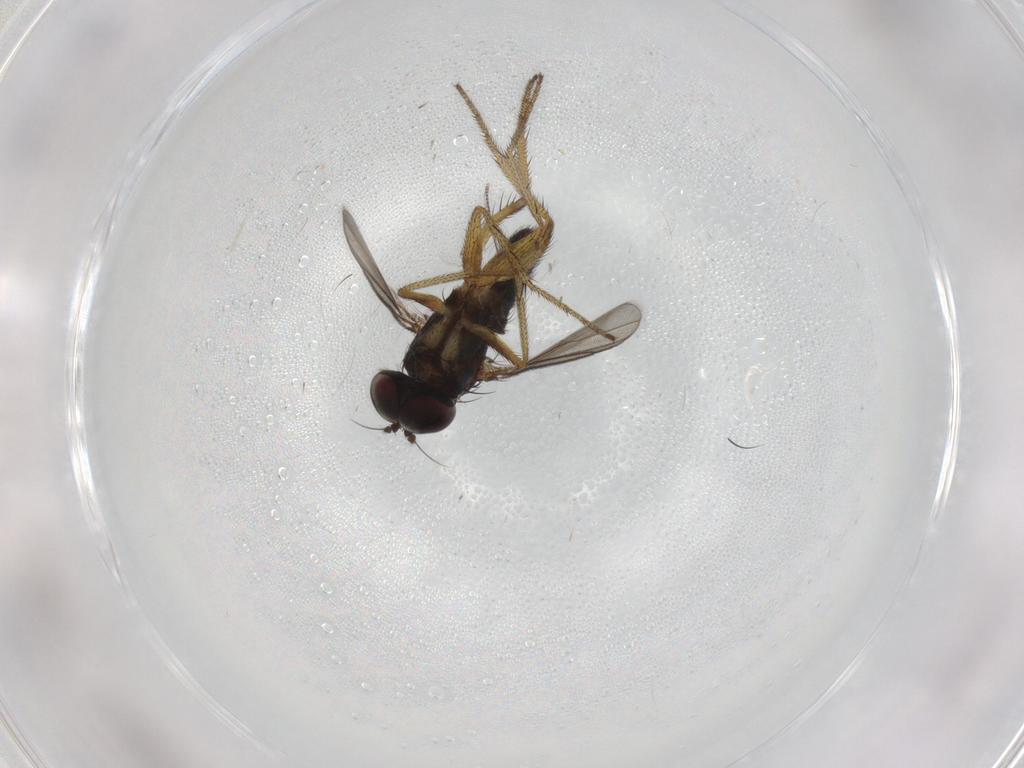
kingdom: Animalia
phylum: Arthropoda
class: Insecta
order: Diptera
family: Dolichopodidae
